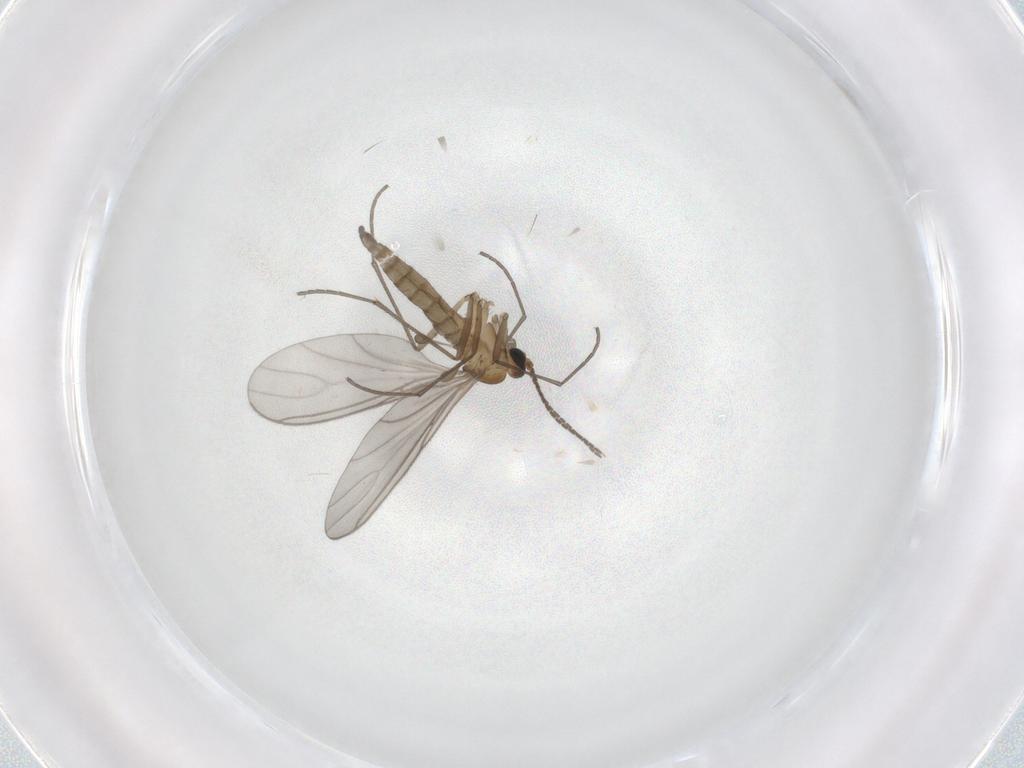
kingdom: Animalia
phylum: Arthropoda
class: Insecta
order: Diptera
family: Sciaridae
